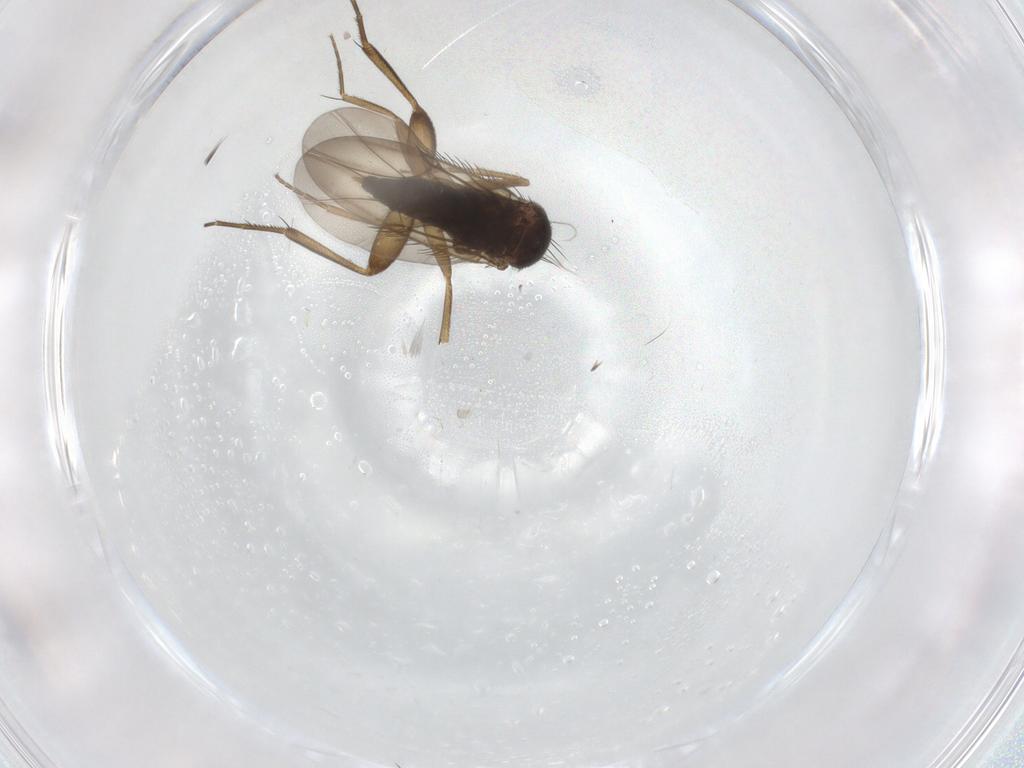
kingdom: Animalia
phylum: Arthropoda
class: Insecta
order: Diptera
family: Phoridae
